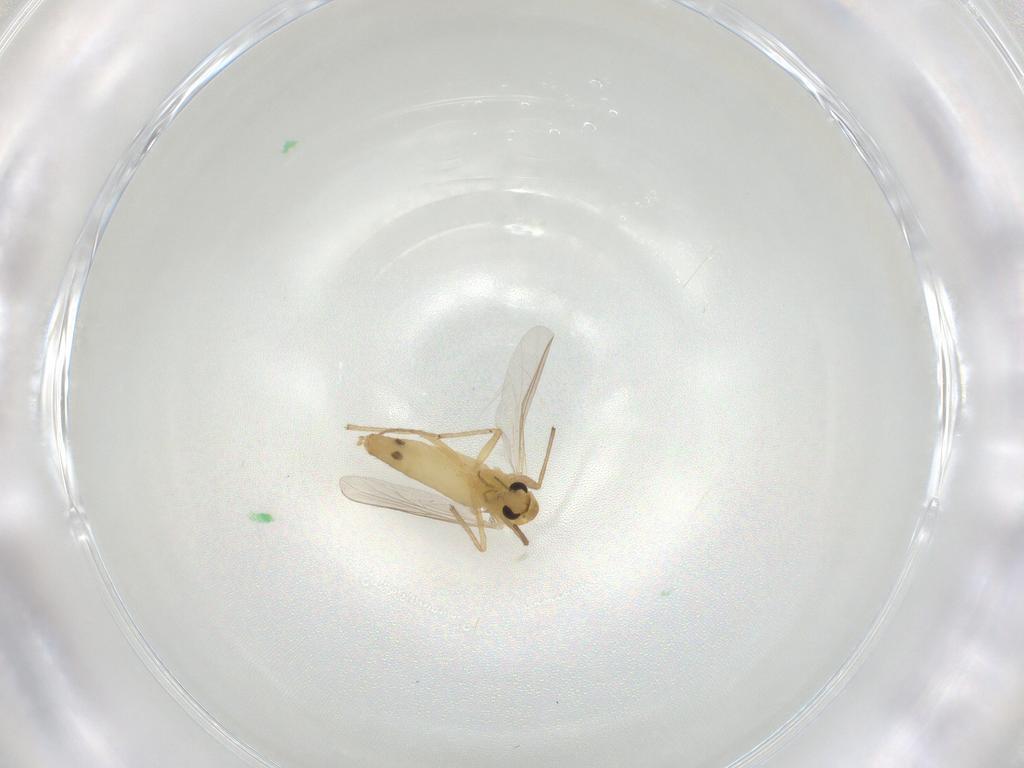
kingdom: Animalia
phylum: Arthropoda
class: Insecta
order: Diptera
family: Chironomidae
